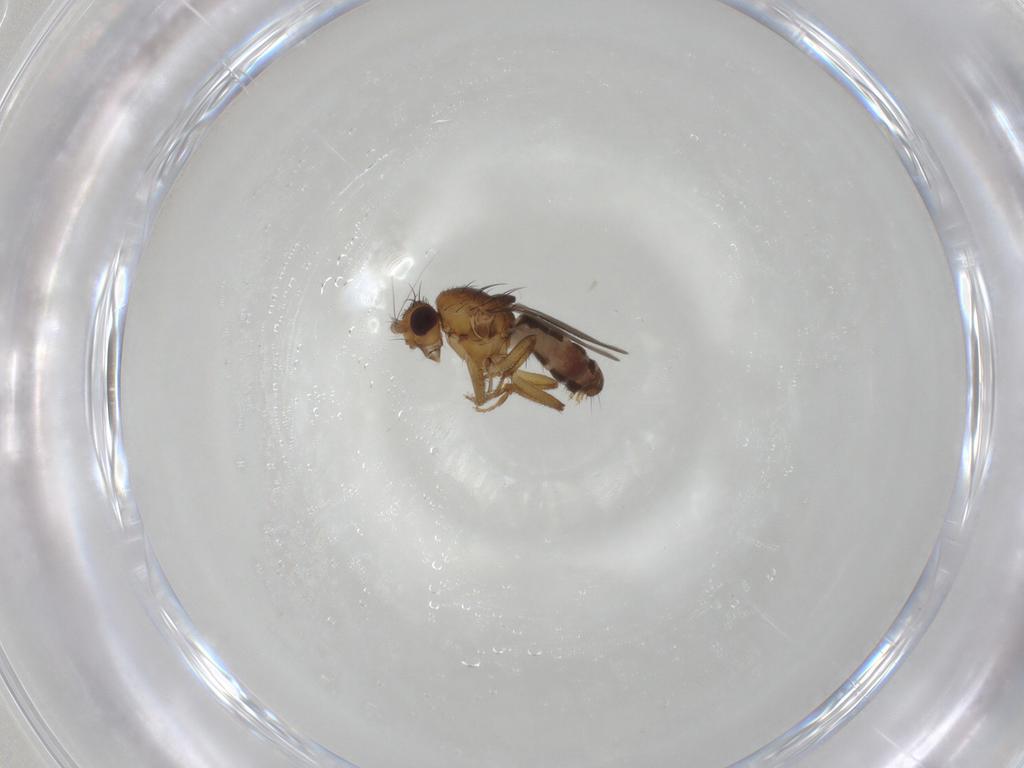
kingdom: Animalia
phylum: Arthropoda
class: Insecta
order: Diptera
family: Sphaeroceridae
